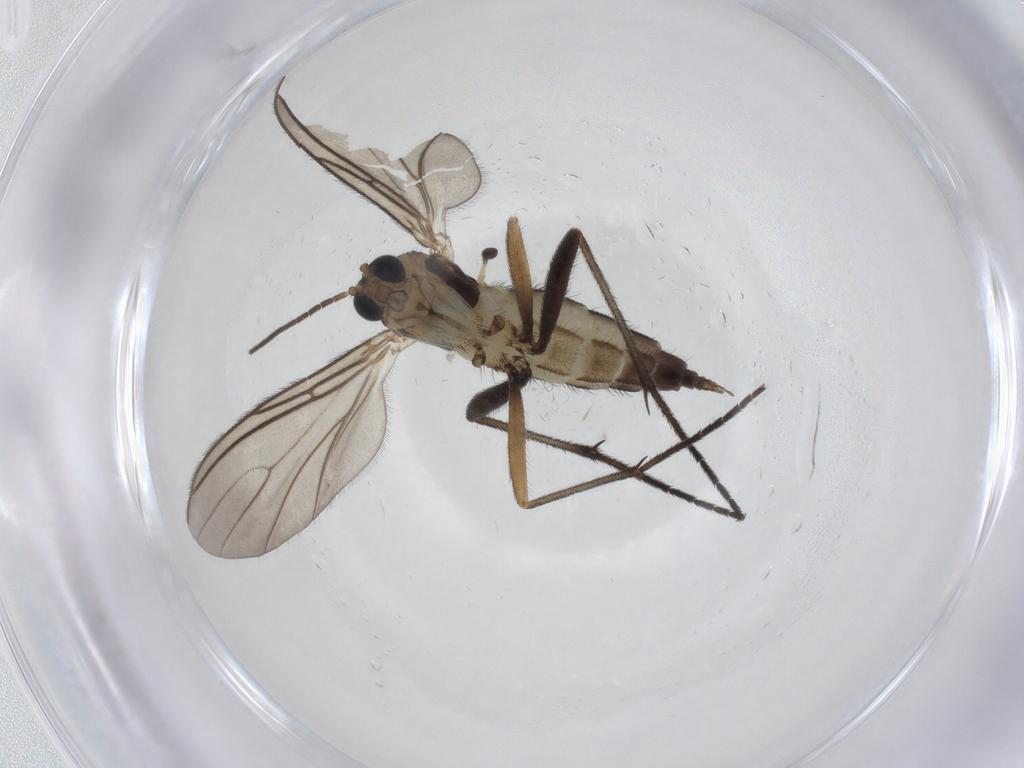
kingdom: Animalia
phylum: Arthropoda
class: Insecta
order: Diptera
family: Sciaridae
